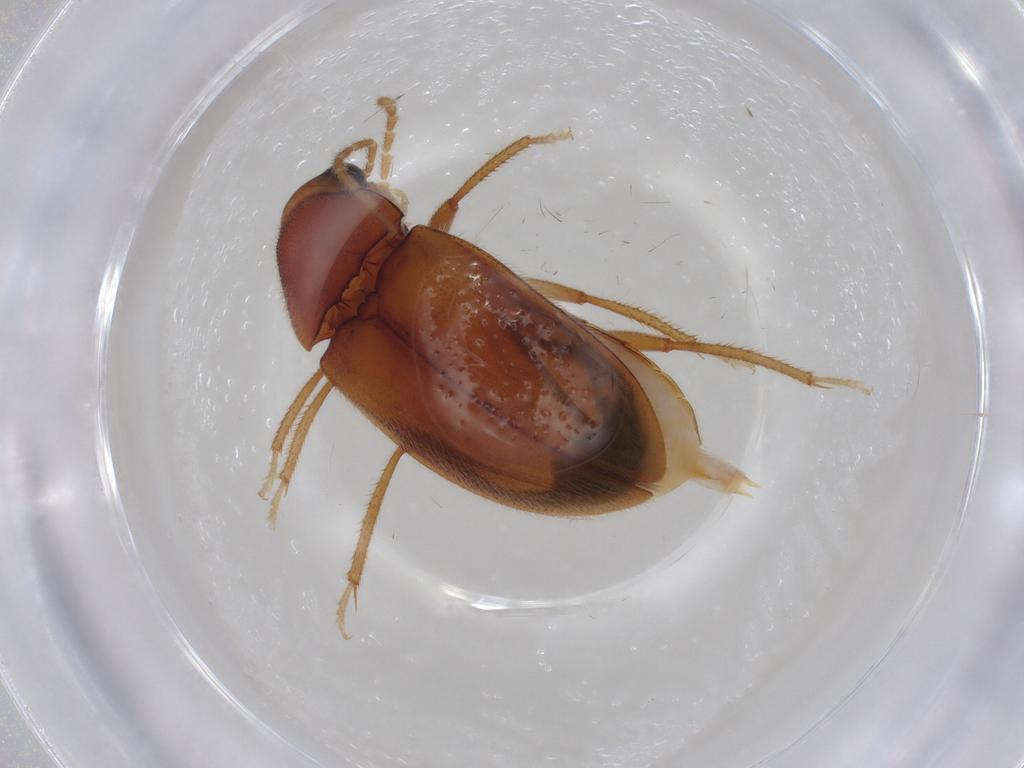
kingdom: Animalia
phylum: Arthropoda
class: Insecta
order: Coleoptera
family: Ptilodactylidae
